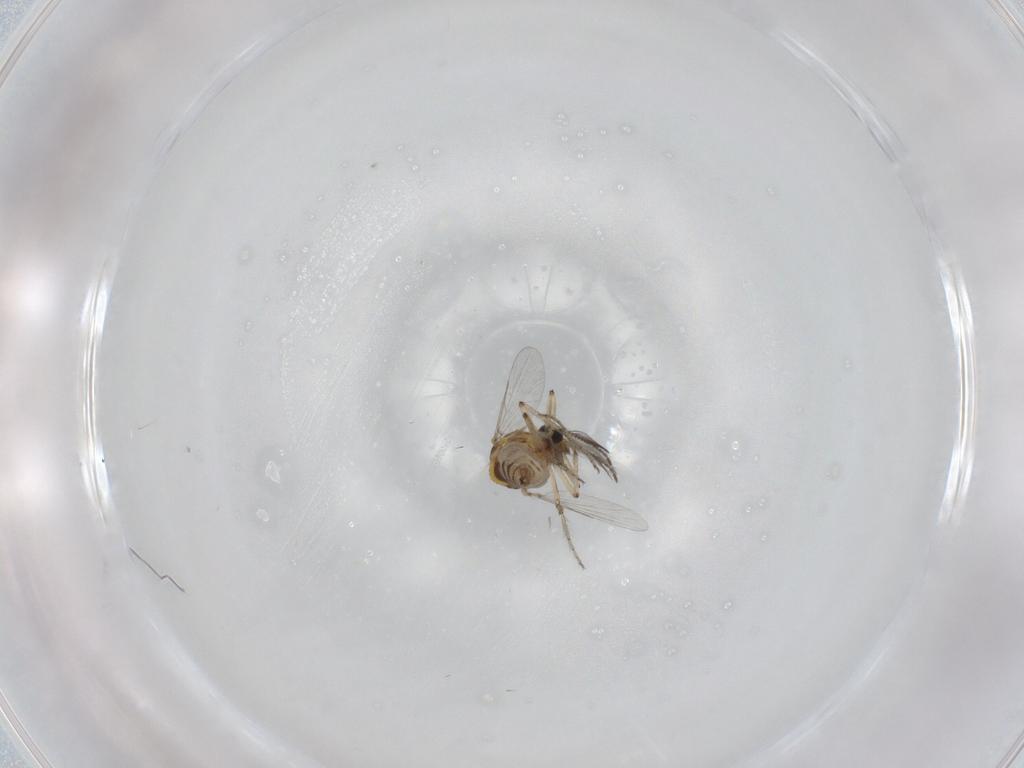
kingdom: Animalia
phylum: Arthropoda
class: Insecta
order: Diptera
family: Ceratopogonidae
